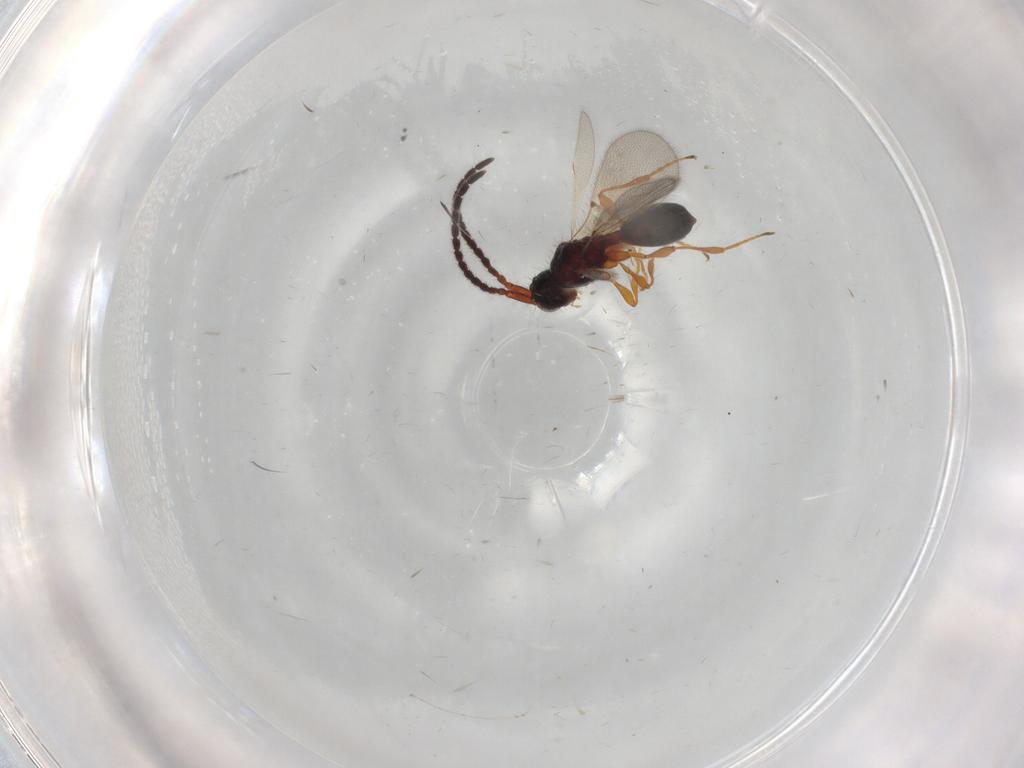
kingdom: Animalia
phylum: Arthropoda
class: Insecta
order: Hymenoptera
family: Diapriidae
